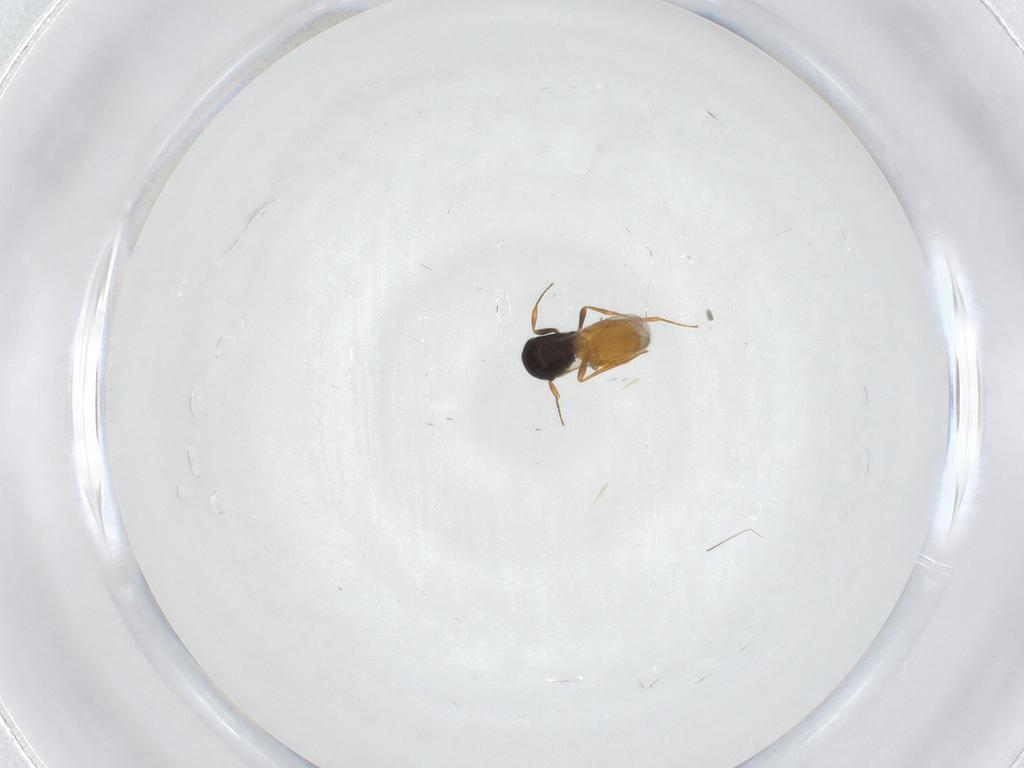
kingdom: Animalia
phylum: Arthropoda
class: Insecta
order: Hymenoptera
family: Scelionidae
